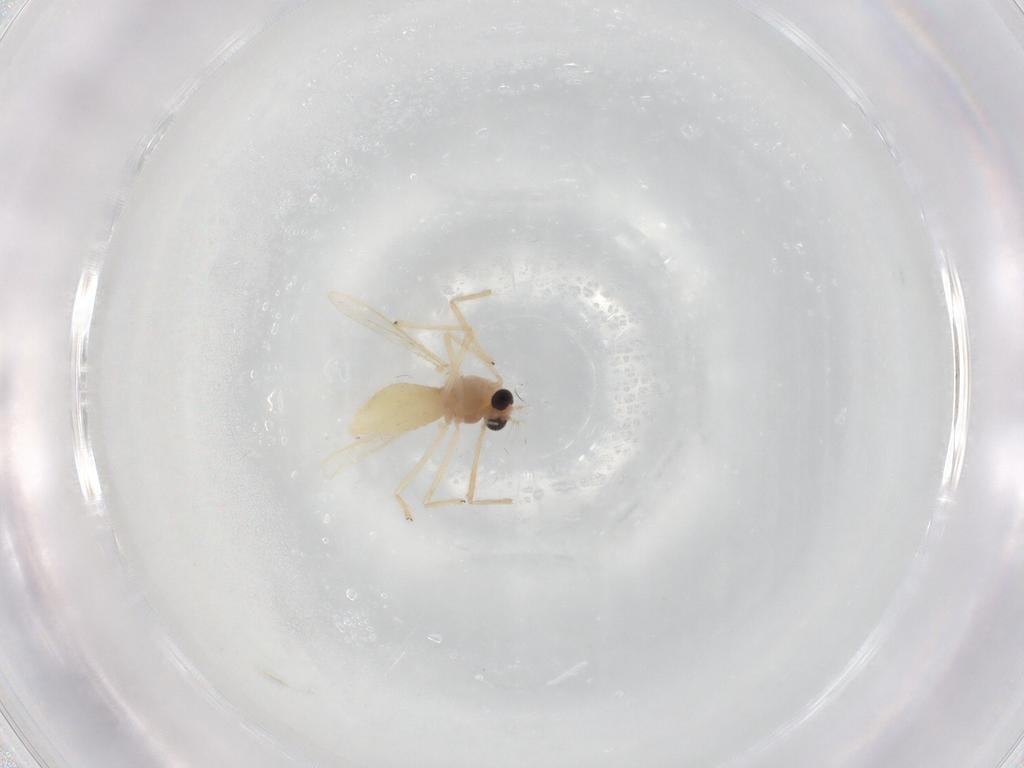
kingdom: Animalia
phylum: Arthropoda
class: Insecta
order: Diptera
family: Chironomidae
